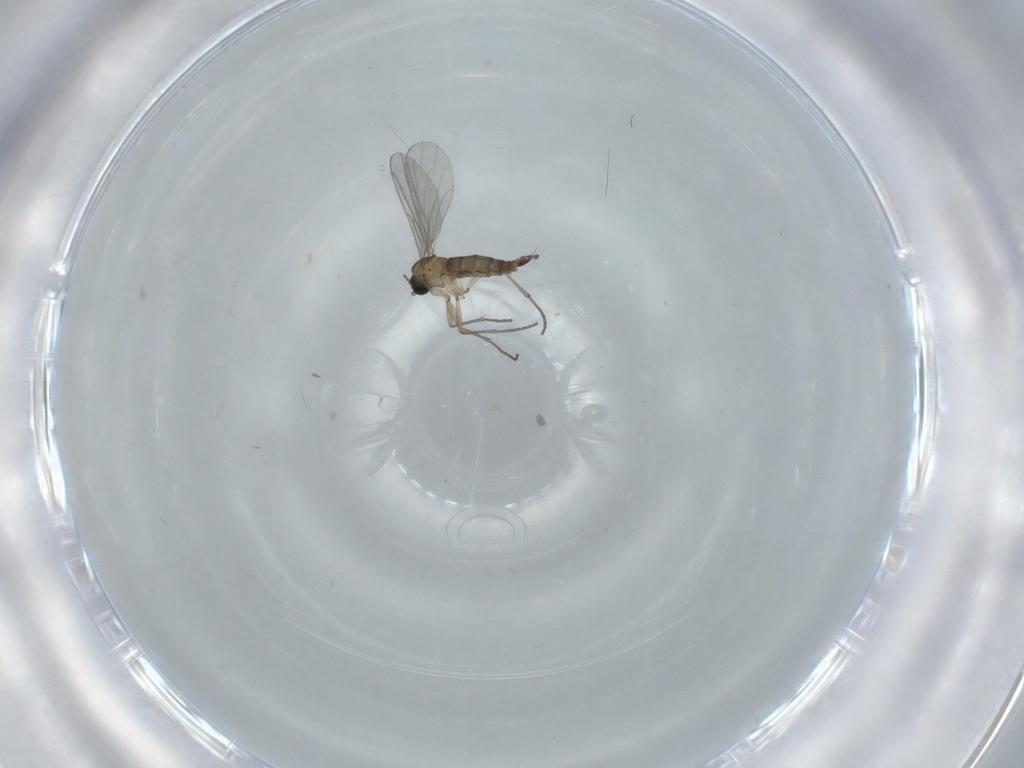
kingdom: Animalia
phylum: Arthropoda
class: Insecta
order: Diptera
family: Sciaridae
